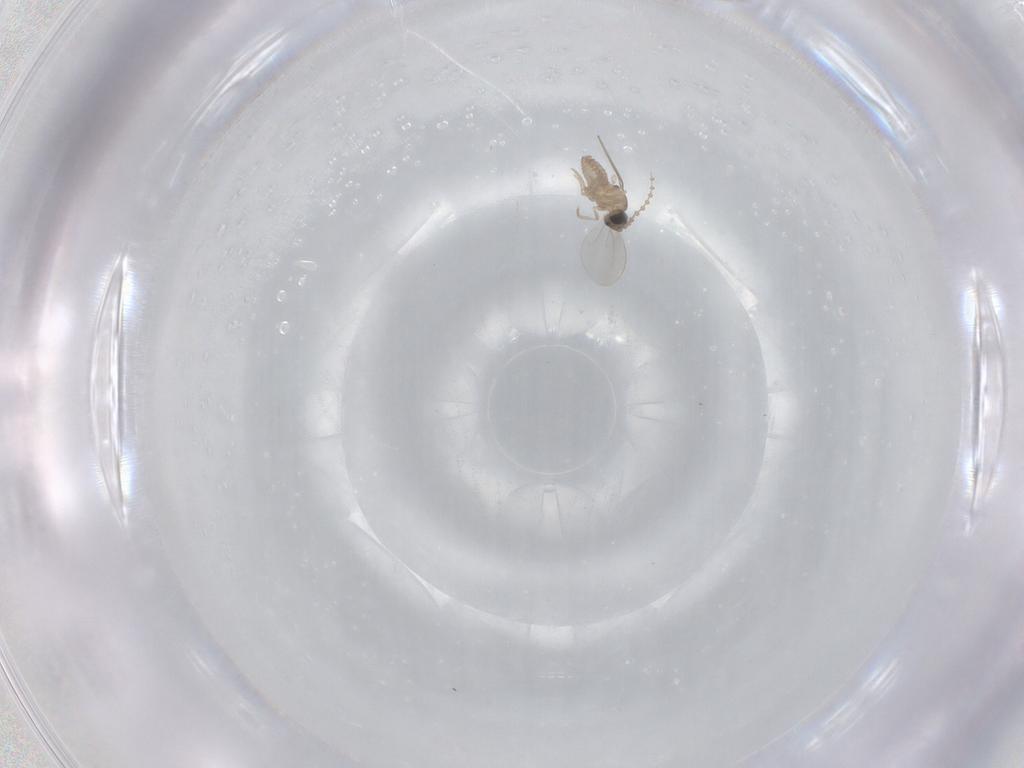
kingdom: Animalia
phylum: Arthropoda
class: Insecta
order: Diptera
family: Cecidomyiidae
